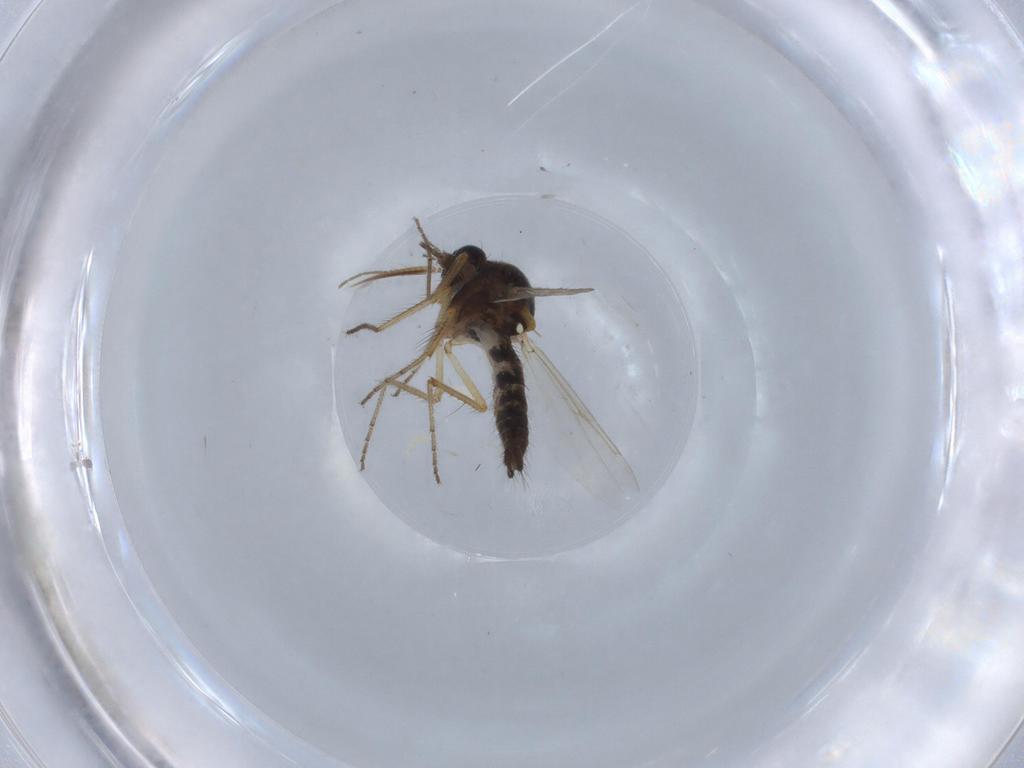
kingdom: Animalia
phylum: Arthropoda
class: Insecta
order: Diptera
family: Ceratopogonidae
